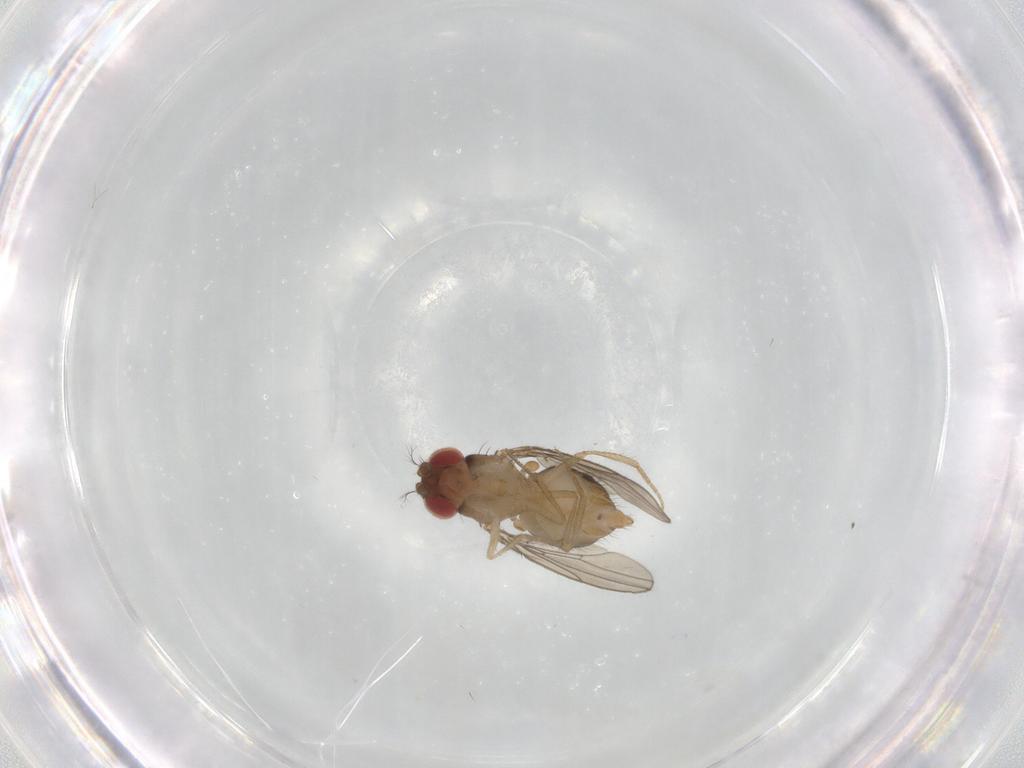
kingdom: Animalia
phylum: Arthropoda
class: Insecta
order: Diptera
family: Drosophilidae
